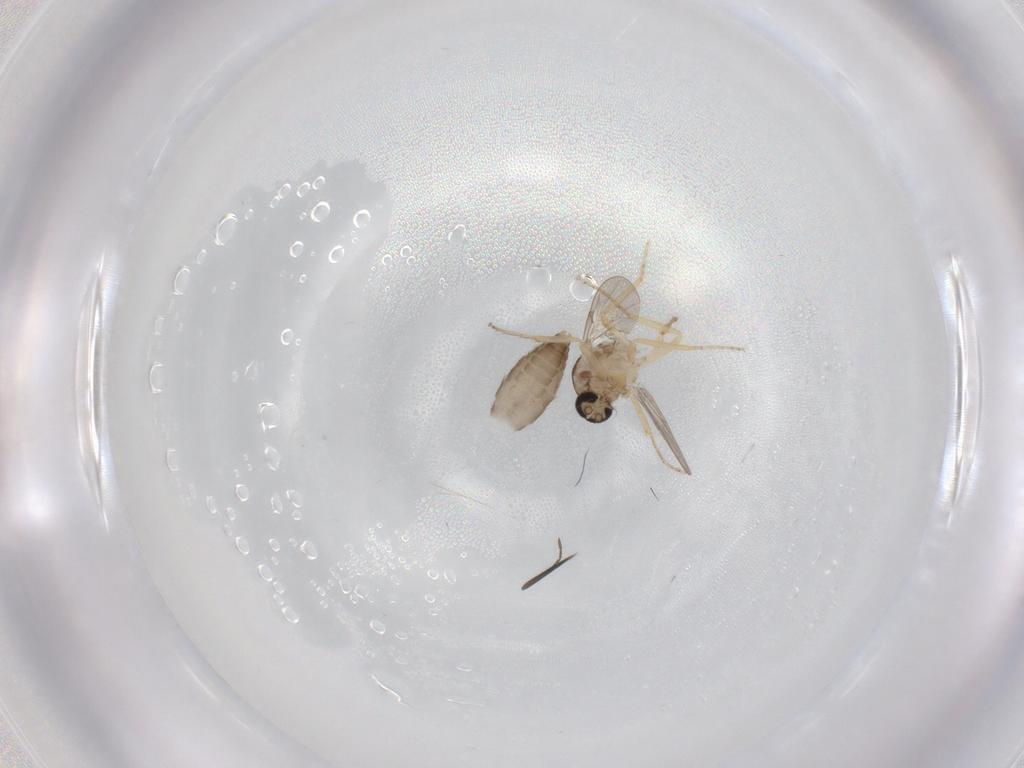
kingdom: Animalia
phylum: Arthropoda
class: Insecta
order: Diptera
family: Ceratopogonidae
